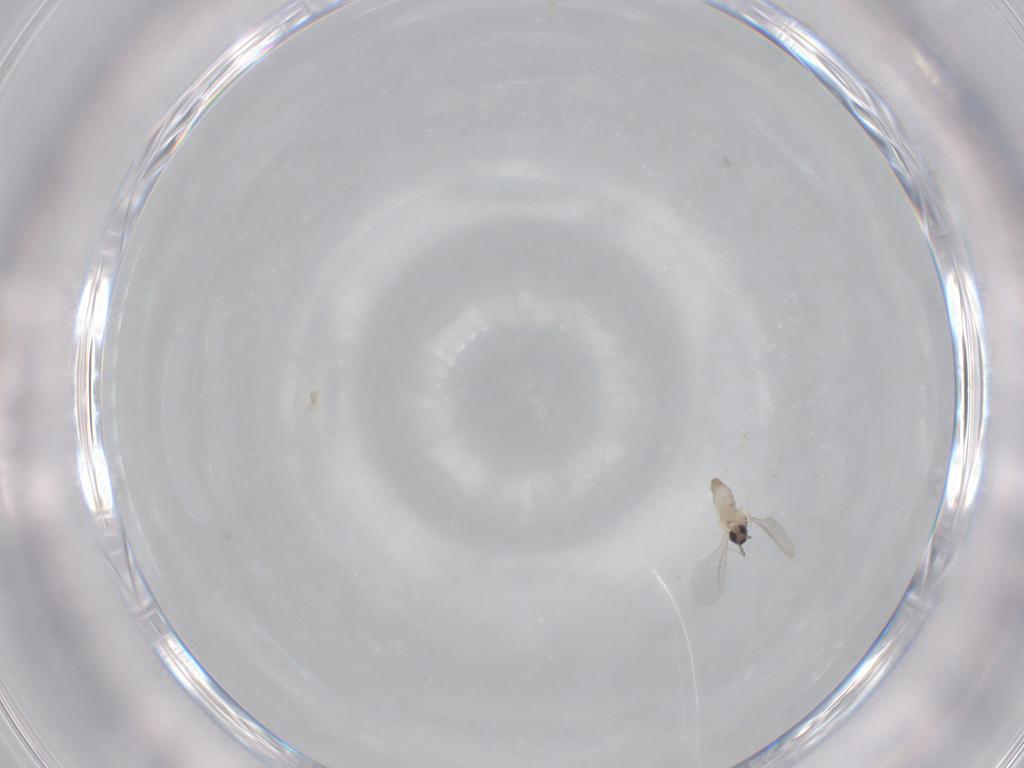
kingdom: Animalia
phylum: Arthropoda
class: Insecta
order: Diptera
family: Cecidomyiidae
